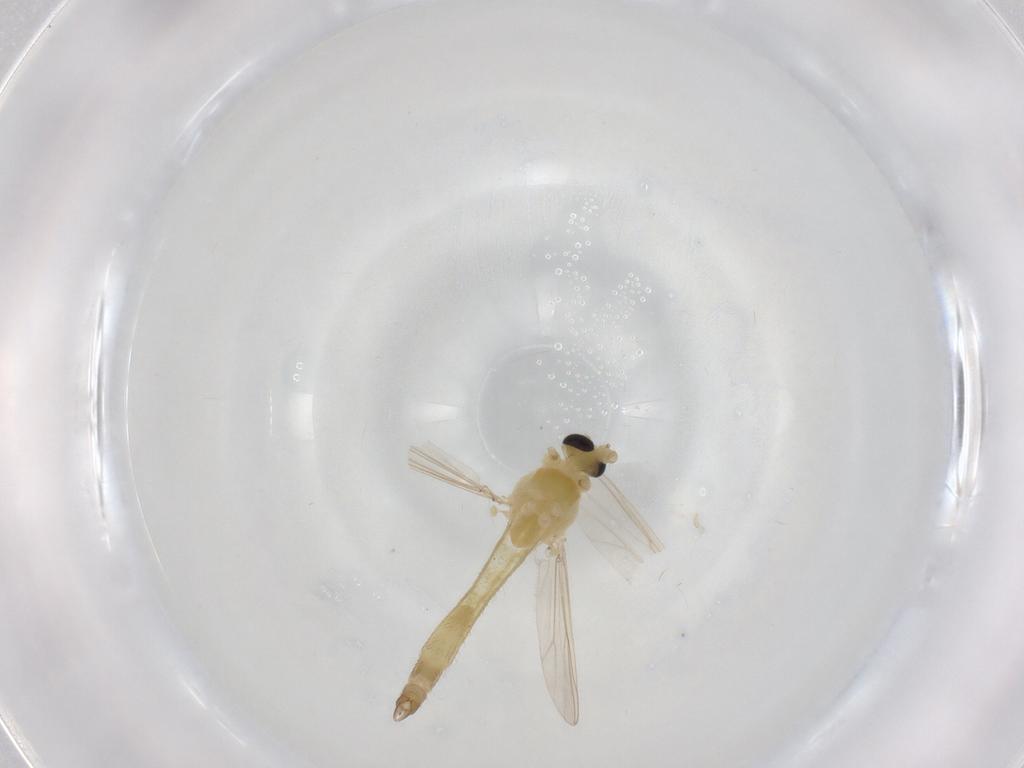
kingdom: Animalia
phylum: Arthropoda
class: Insecta
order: Diptera
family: Chironomidae
